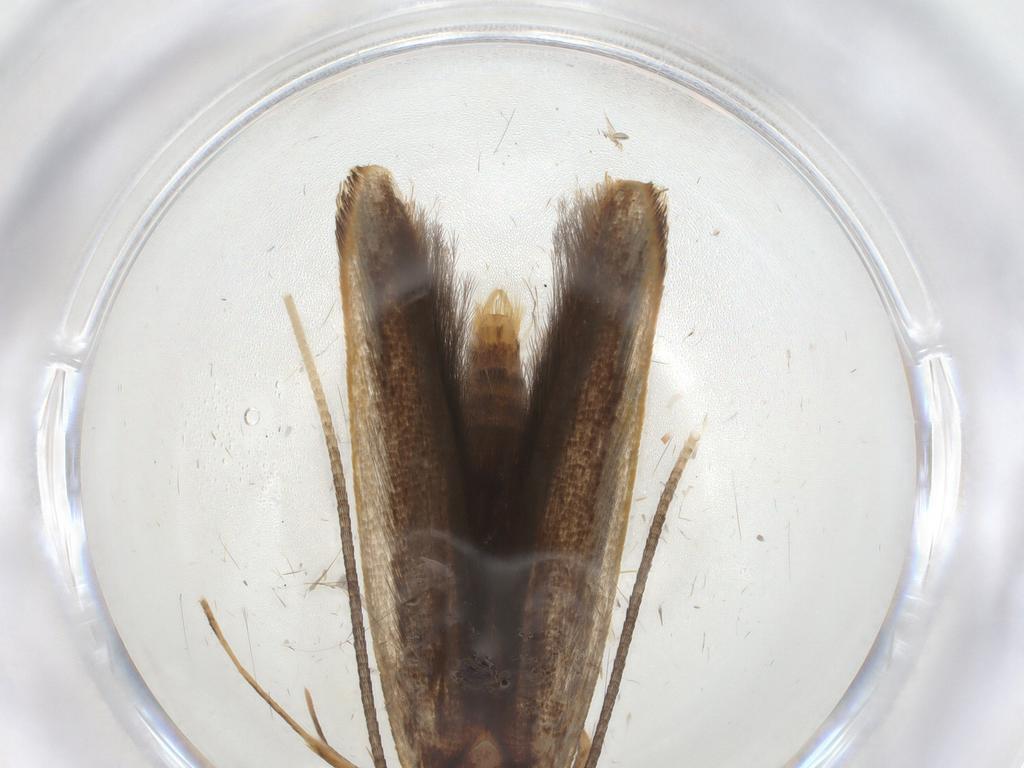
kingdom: Animalia
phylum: Arthropoda
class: Insecta
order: Lepidoptera
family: Pterolonchidae
